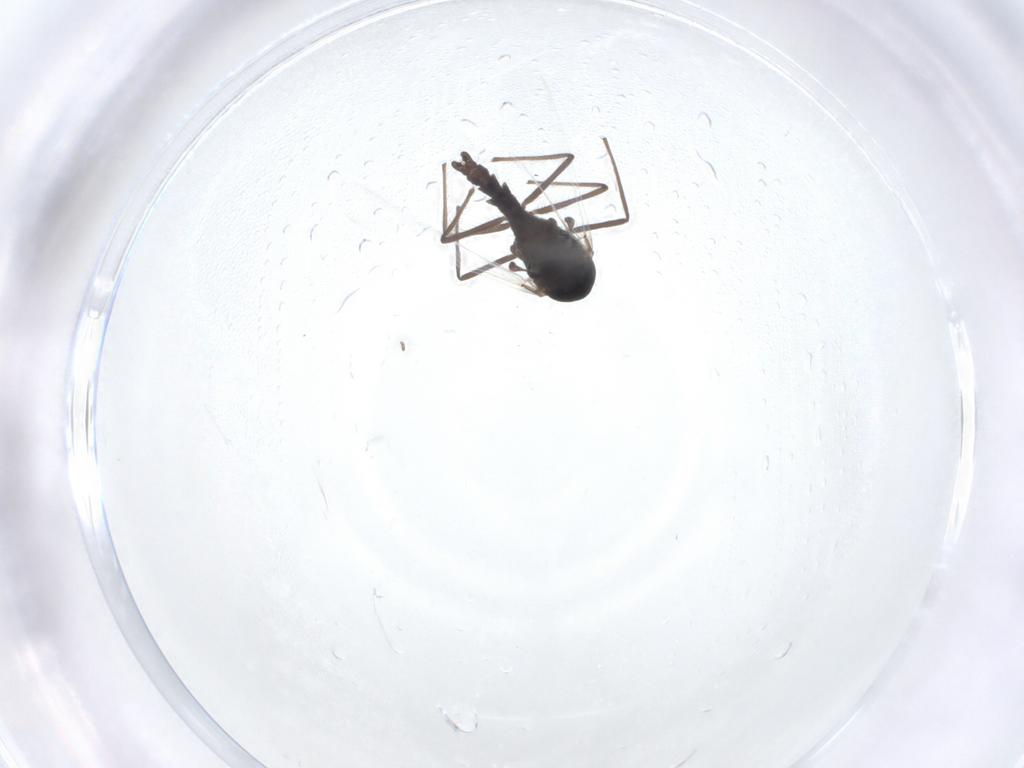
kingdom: Animalia
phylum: Arthropoda
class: Insecta
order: Diptera
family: Chironomidae
